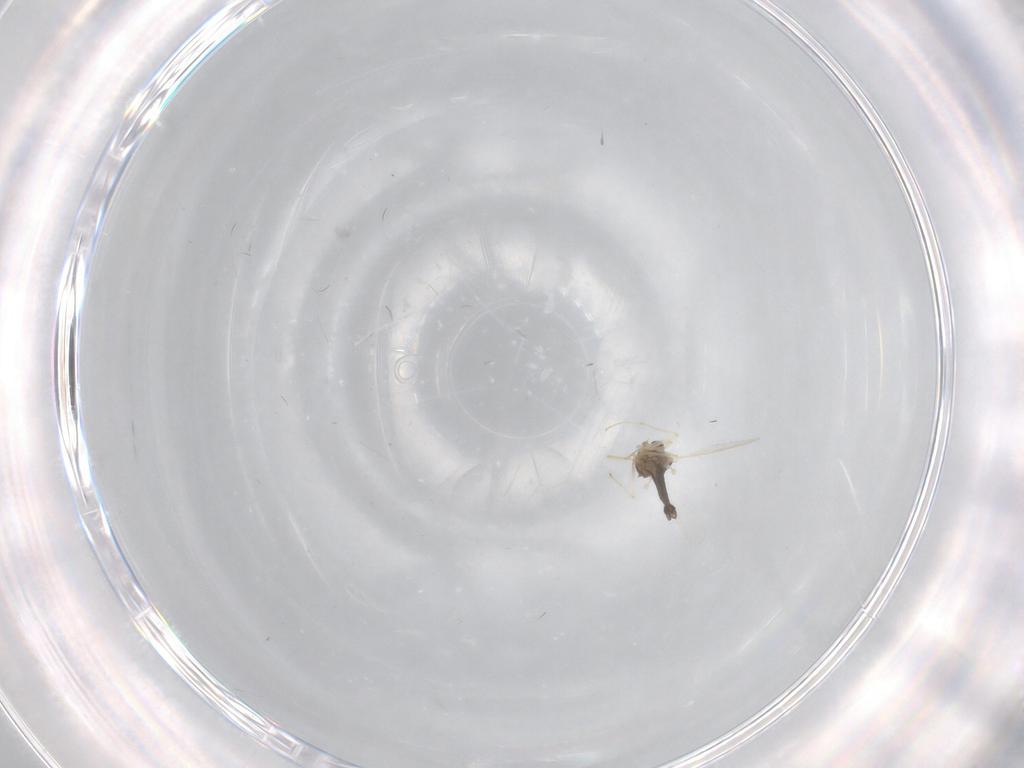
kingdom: Animalia
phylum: Arthropoda
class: Insecta
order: Diptera
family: Chironomidae
